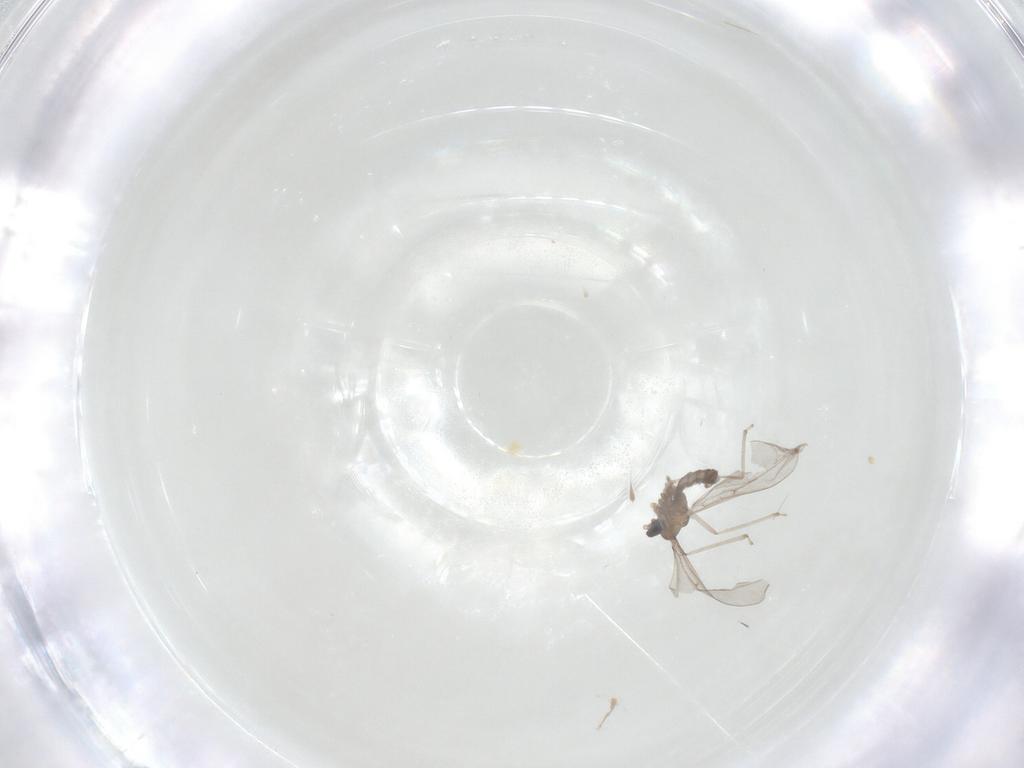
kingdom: Animalia
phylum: Arthropoda
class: Insecta
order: Diptera
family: Cecidomyiidae
